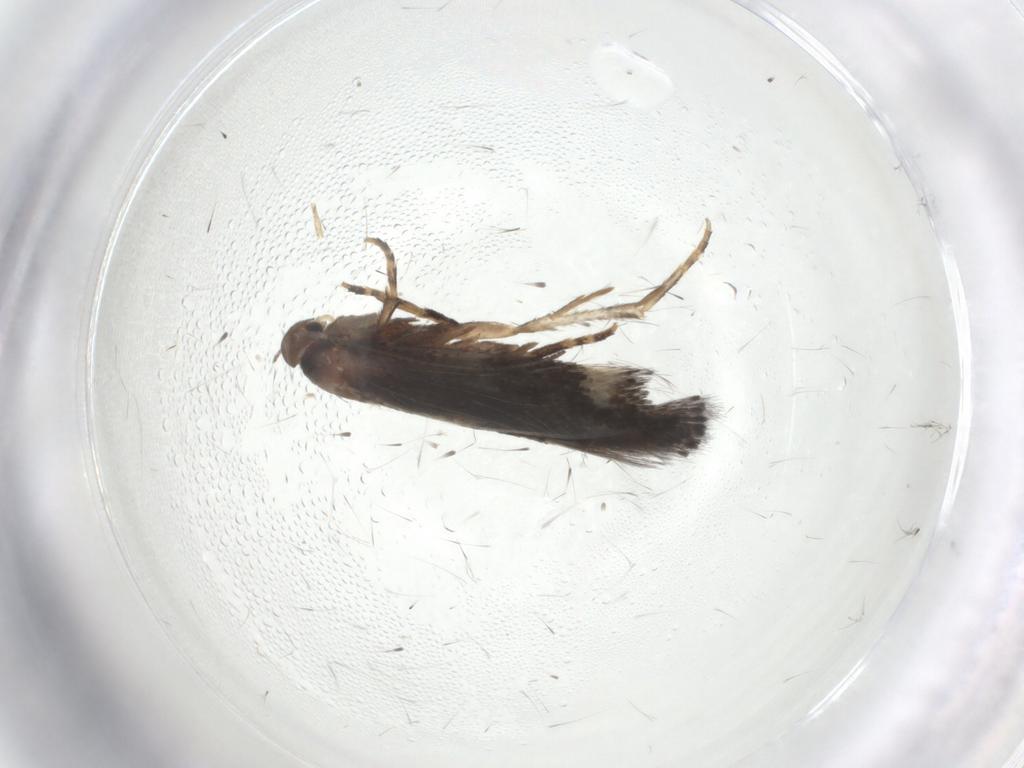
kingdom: Animalia
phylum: Arthropoda
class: Insecta
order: Lepidoptera
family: Elachistidae
